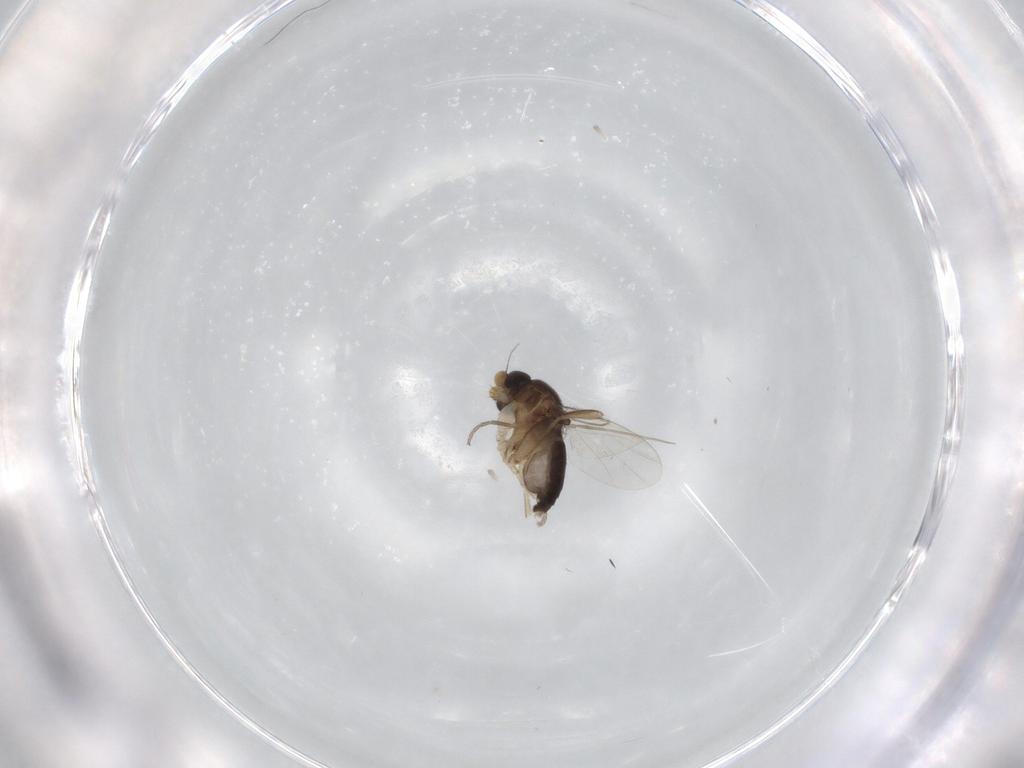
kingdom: Animalia
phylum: Arthropoda
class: Insecta
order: Diptera
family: Phoridae
